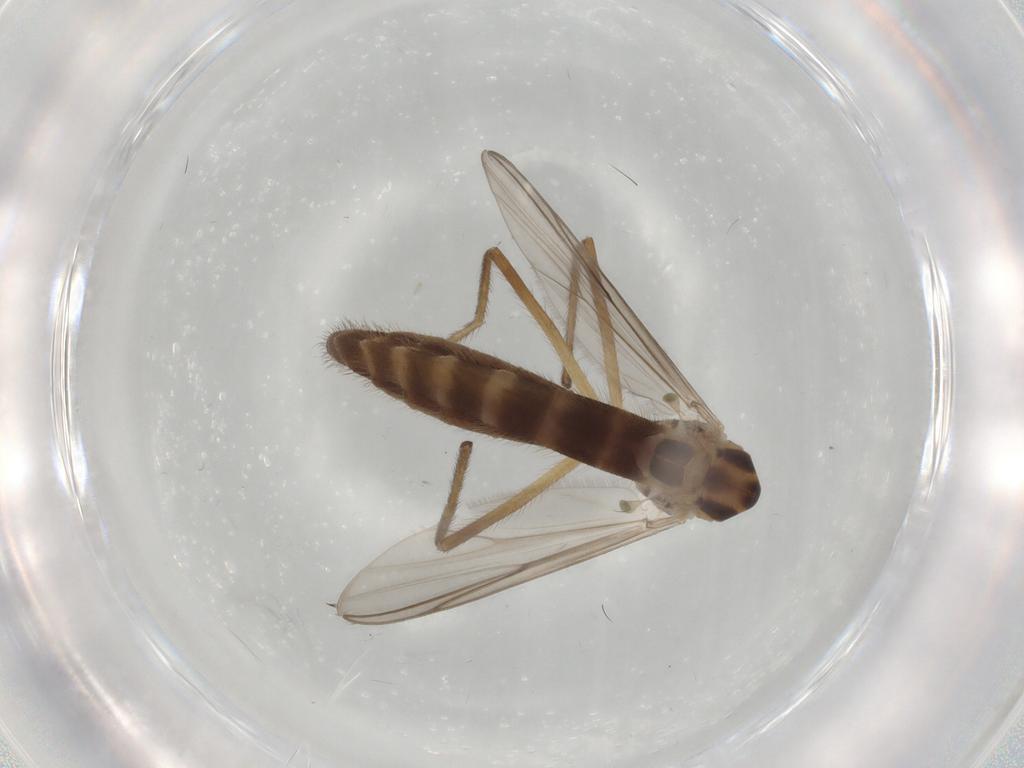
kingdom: Animalia
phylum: Arthropoda
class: Insecta
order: Diptera
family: Chironomidae
